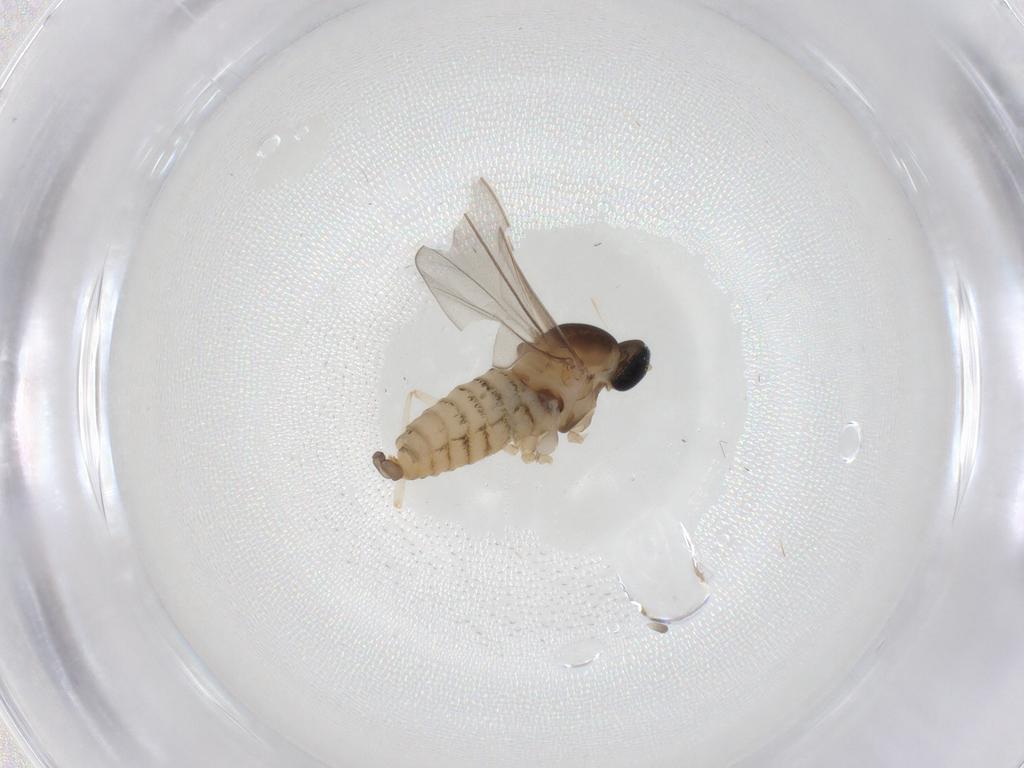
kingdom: Animalia
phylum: Arthropoda
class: Insecta
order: Diptera
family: Cecidomyiidae
